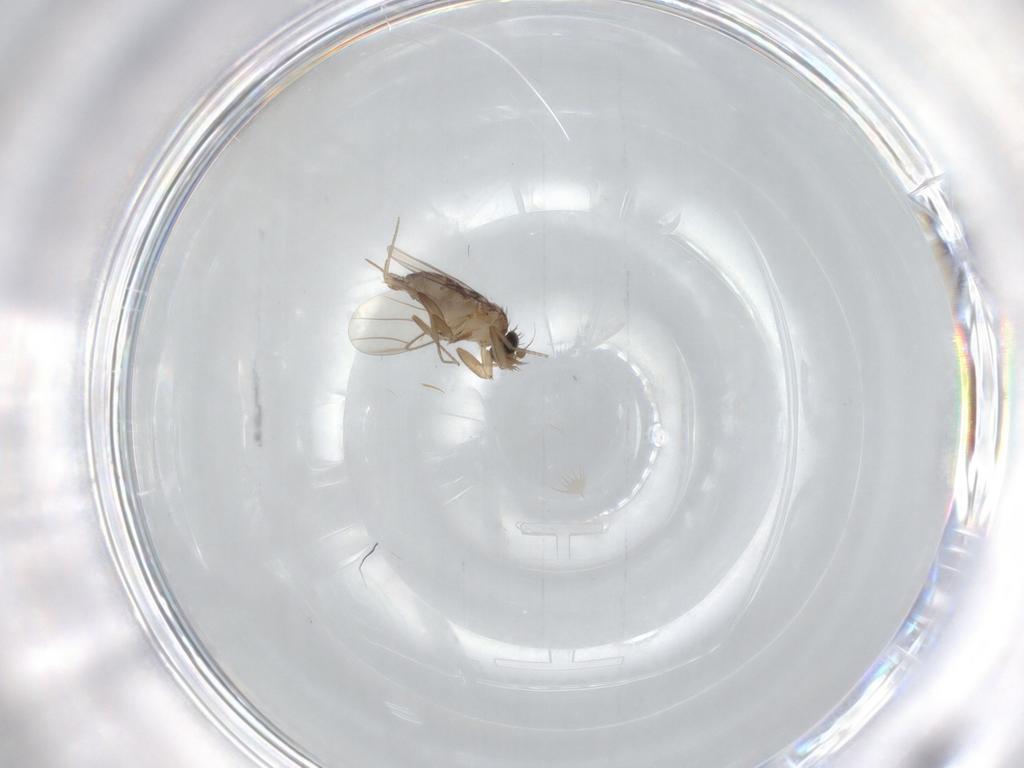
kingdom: Animalia
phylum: Arthropoda
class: Insecta
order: Diptera
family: Phoridae
